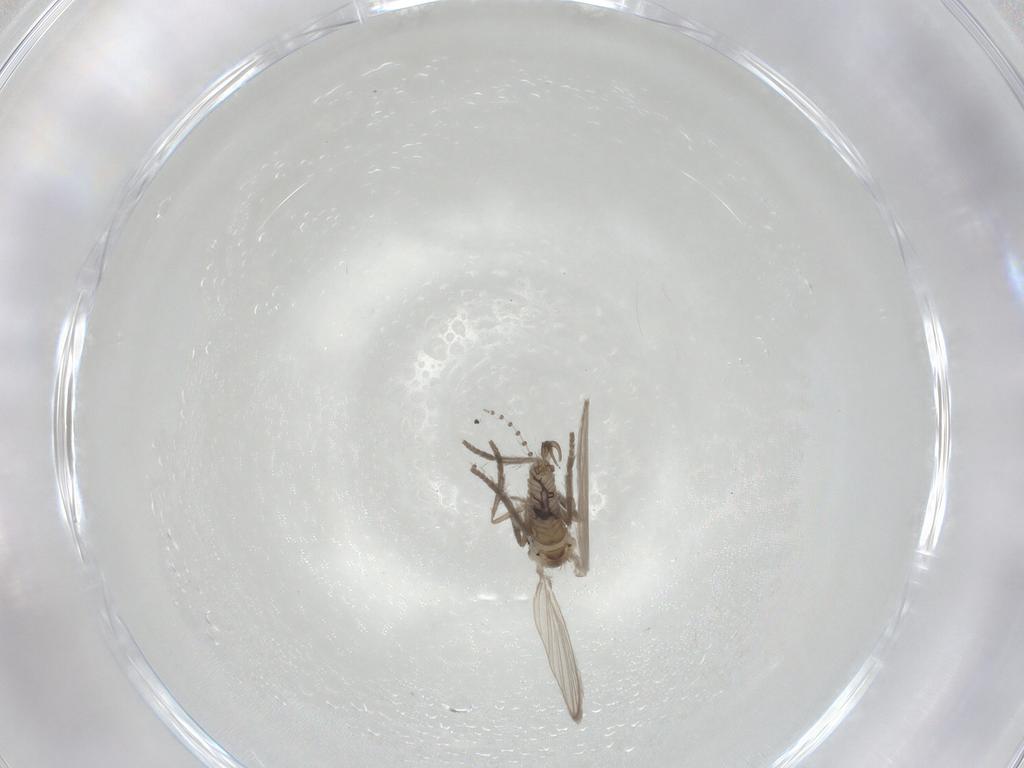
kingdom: Animalia
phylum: Arthropoda
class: Insecta
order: Diptera
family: Psychodidae
